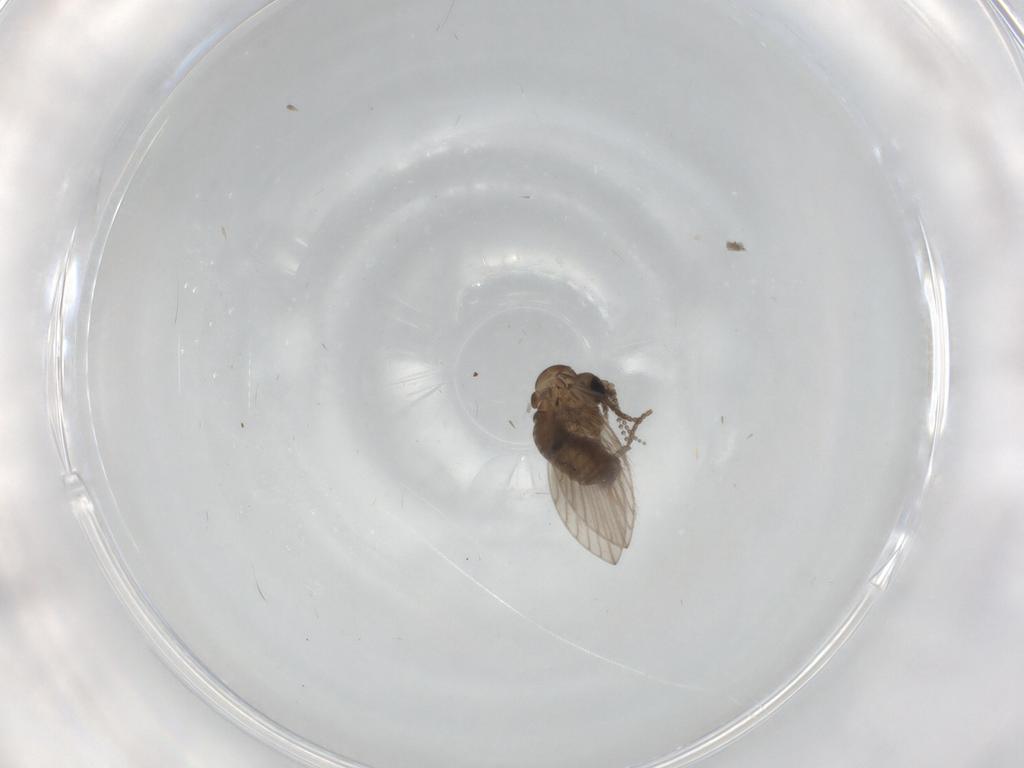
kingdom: Animalia
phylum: Arthropoda
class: Insecta
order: Diptera
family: Psychodidae
